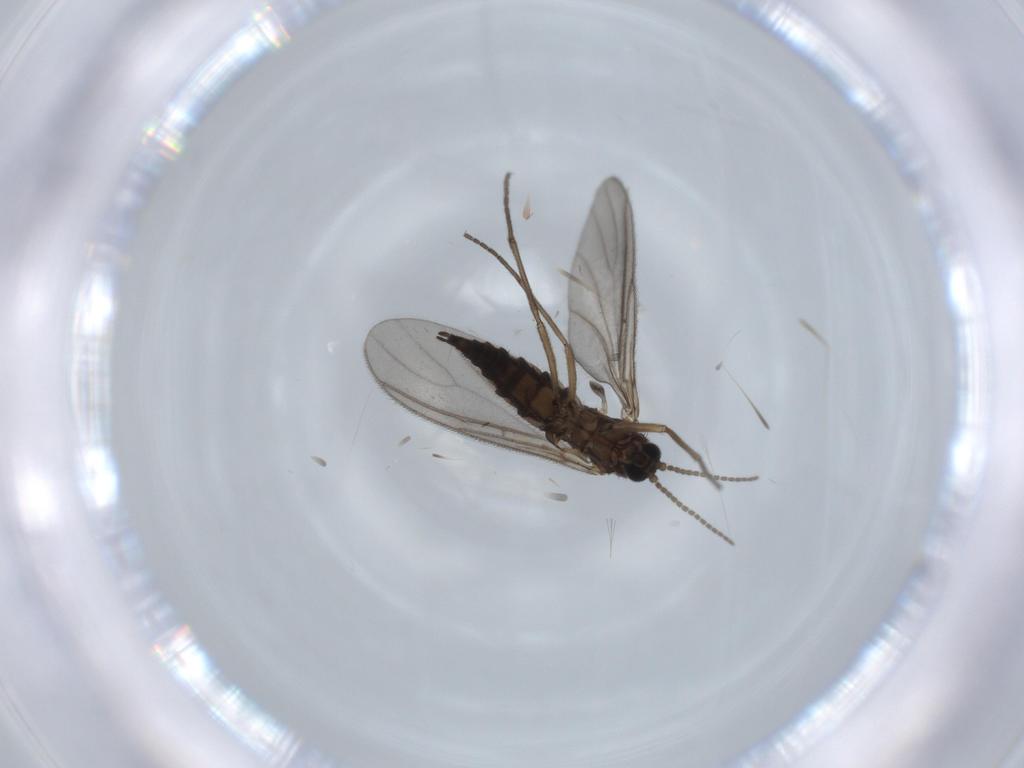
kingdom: Animalia
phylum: Arthropoda
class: Insecta
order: Diptera
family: Sciaridae
